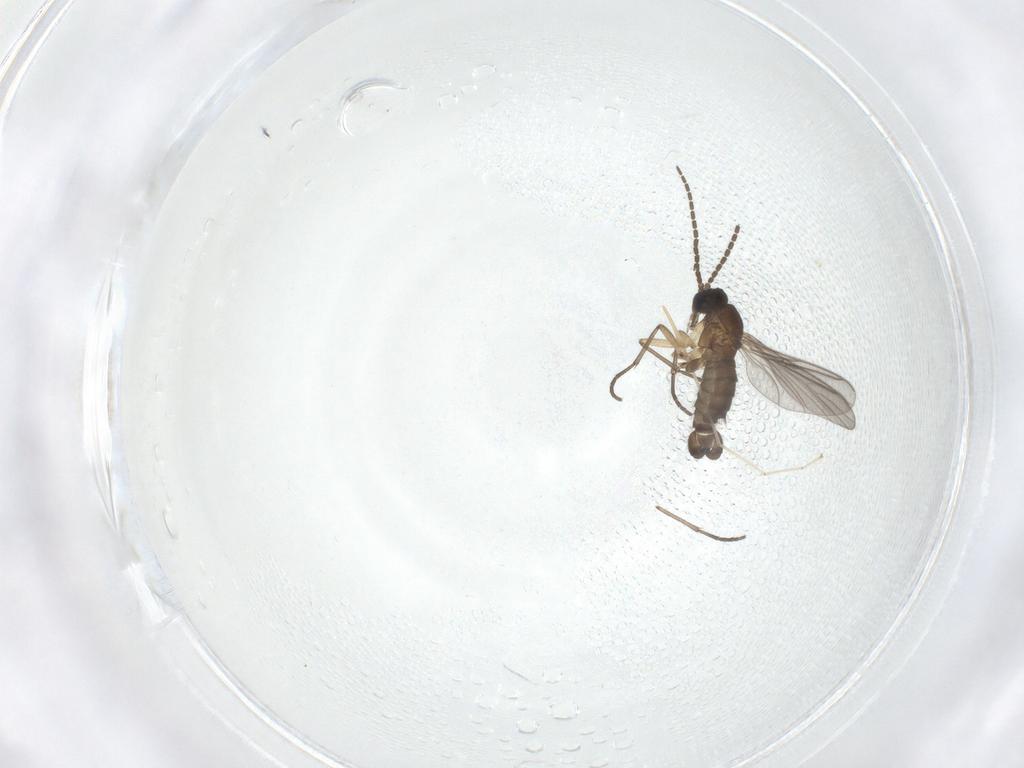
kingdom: Animalia
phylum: Arthropoda
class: Insecta
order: Diptera
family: Sciaridae
